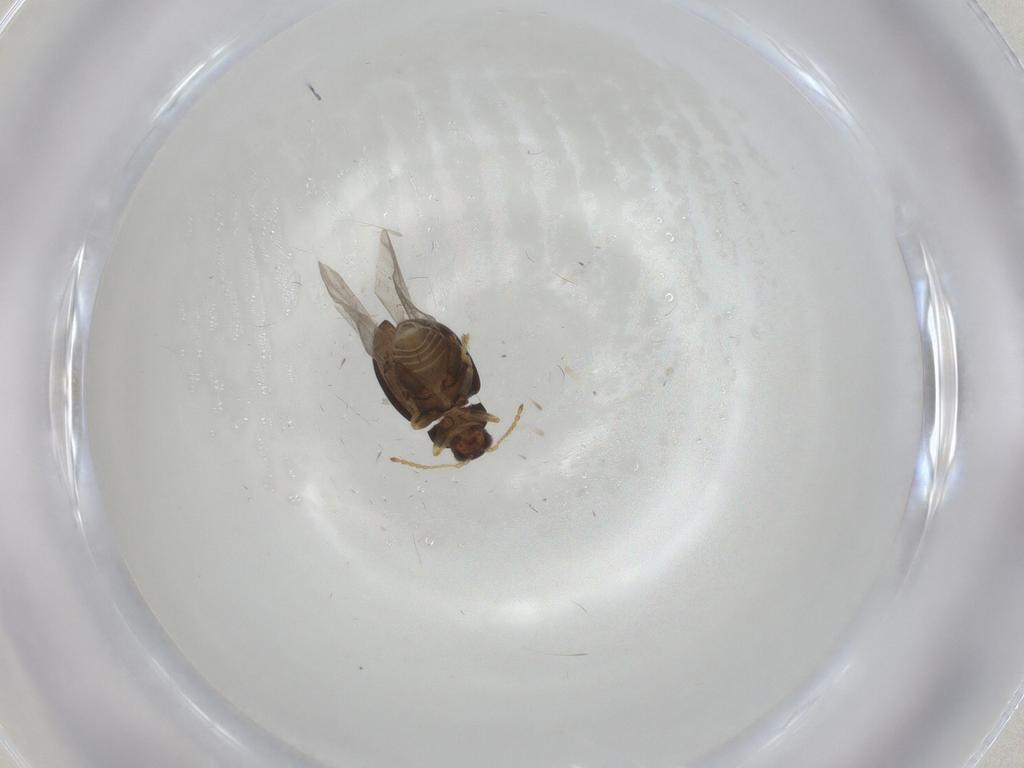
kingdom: Animalia
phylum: Arthropoda
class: Insecta
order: Coleoptera
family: Chrysomelidae
